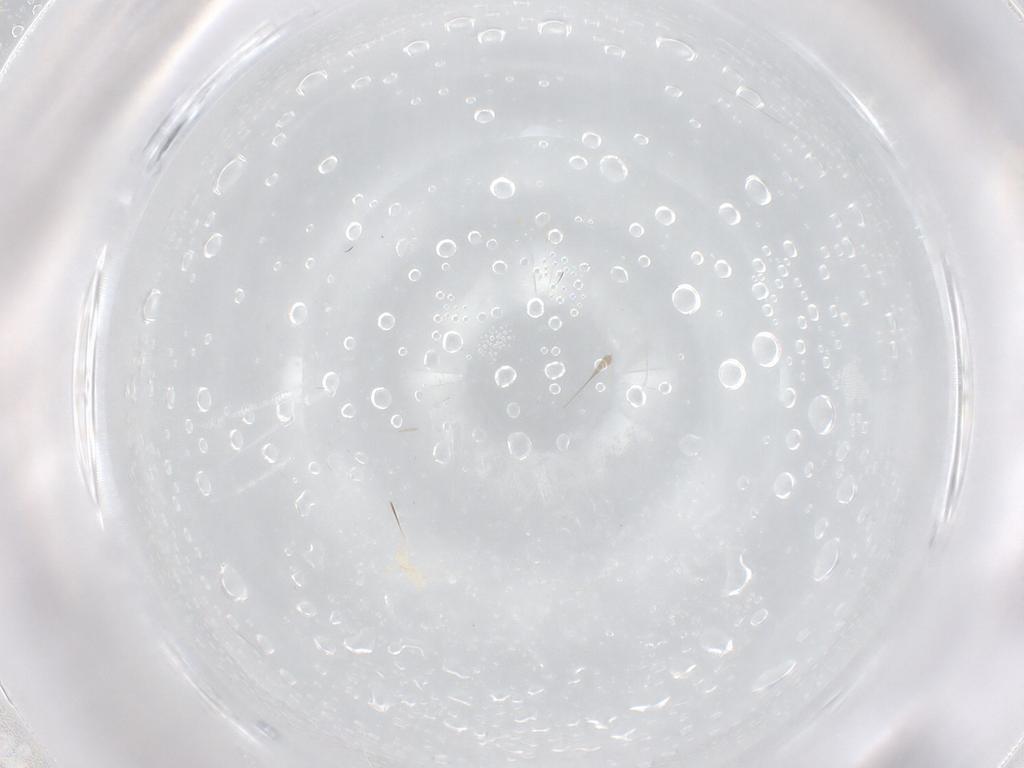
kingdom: Animalia
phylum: Arthropoda
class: Arachnida
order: Trombidiformes
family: Erythraeidae
